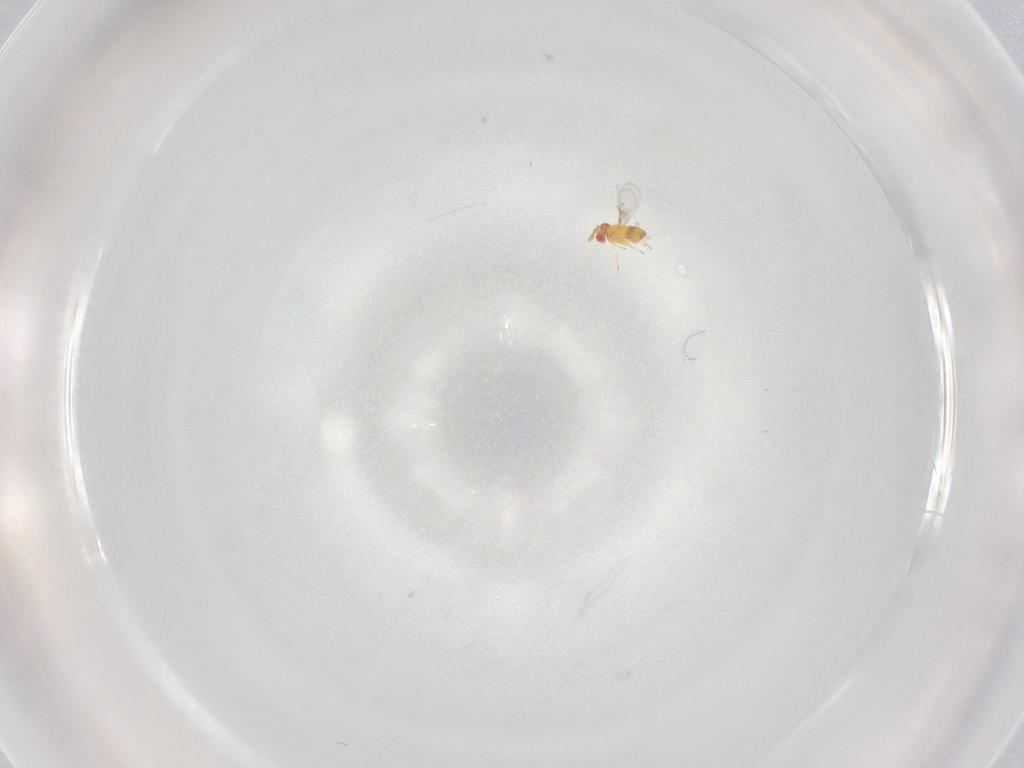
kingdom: Animalia
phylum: Arthropoda
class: Insecta
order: Hymenoptera
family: Trichogrammatidae
